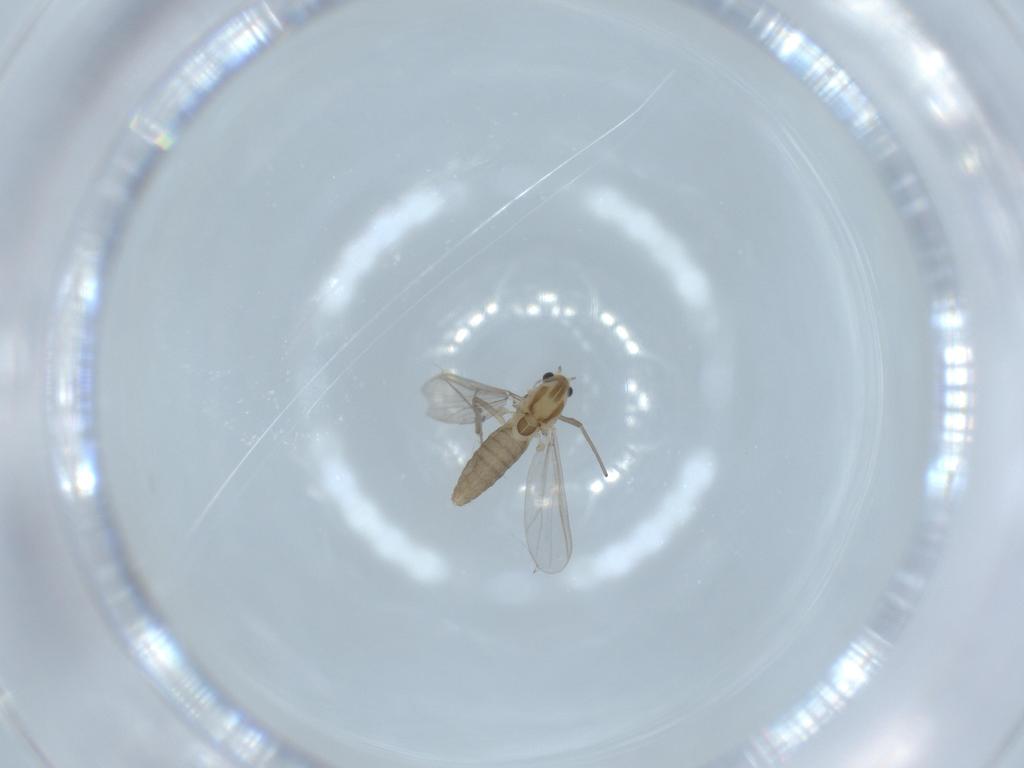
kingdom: Animalia
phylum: Arthropoda
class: Insecta
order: Diptera
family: Chironomidae
